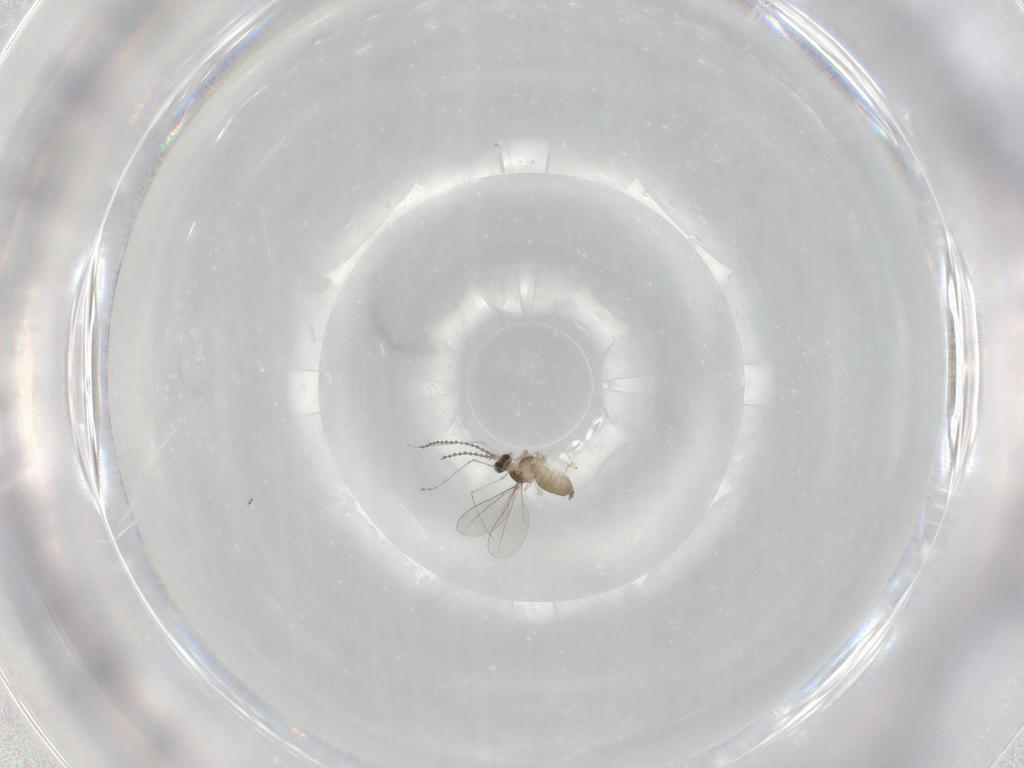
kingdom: Animalia
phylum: Arthropoda
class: Insecta
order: Diptera
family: Cecidomyiidae
